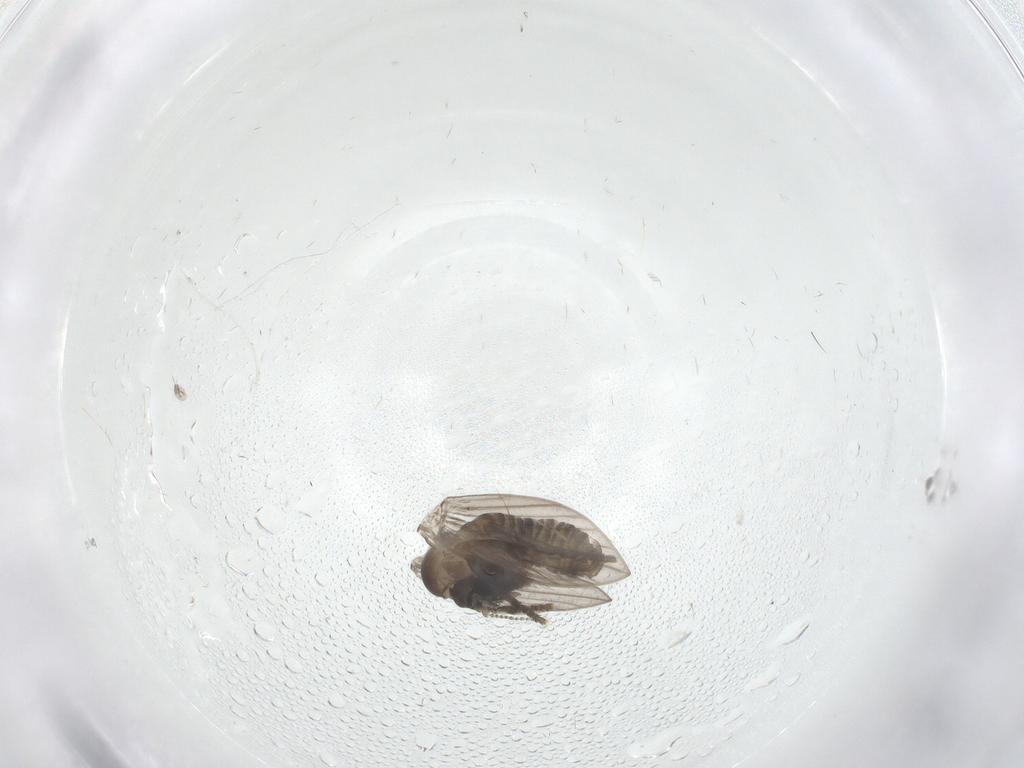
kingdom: Animalia
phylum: Arthropoda
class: Insecta
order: Diptera
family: Psychodidae
